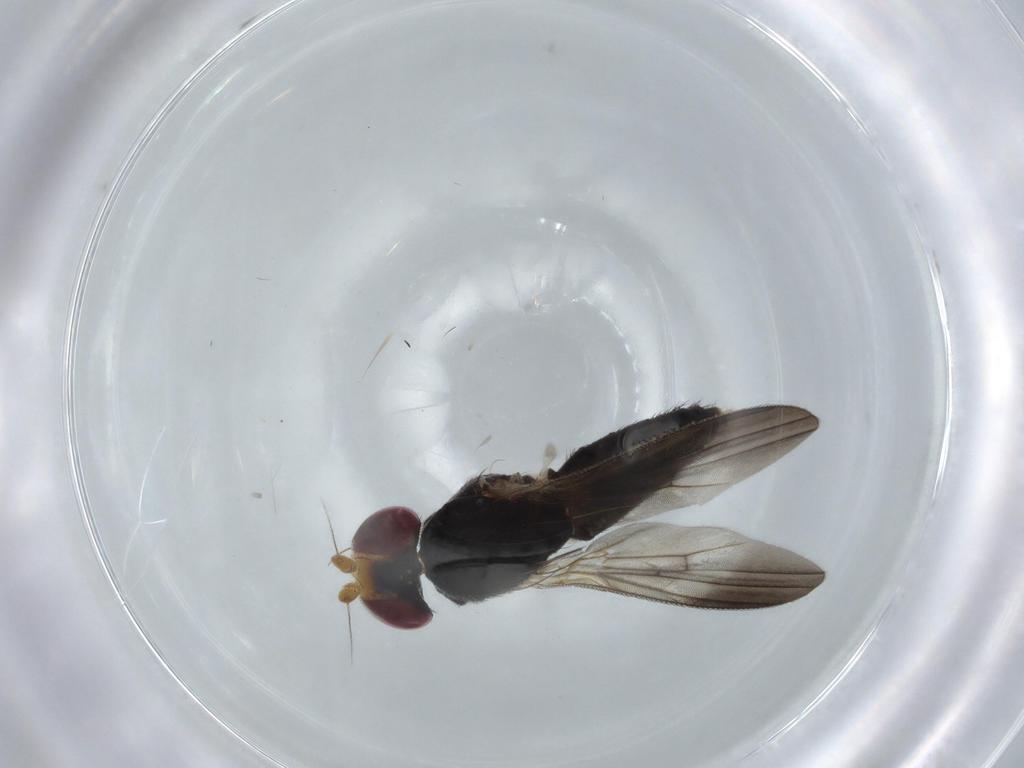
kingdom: Animalia
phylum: Arthropoda
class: Insecta
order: Diptera
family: Clusiidae
